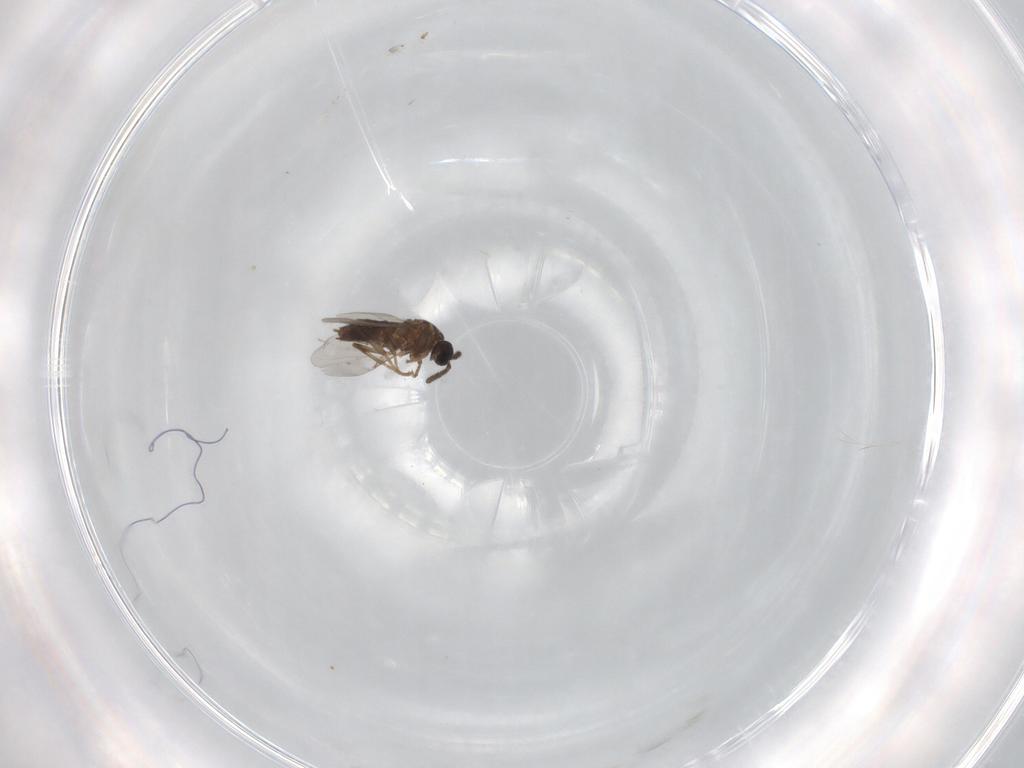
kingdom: Animalia
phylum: Arthropoda
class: Insecta
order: Diptera
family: Scatopsidae
